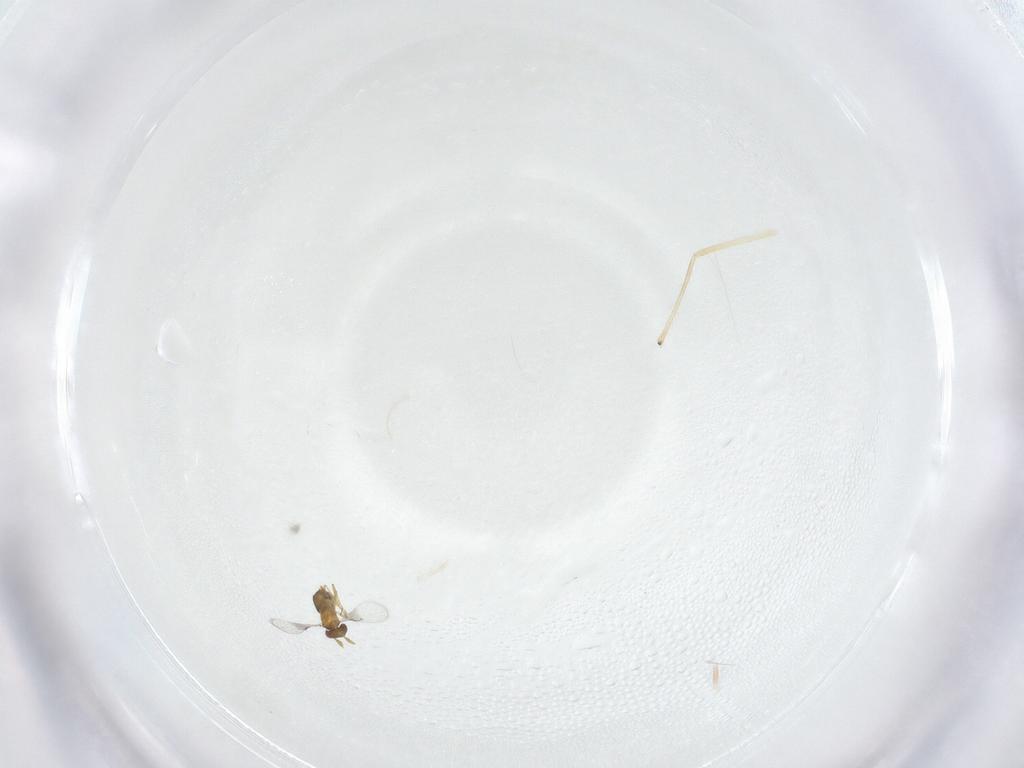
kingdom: Animalia
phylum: Arthropoda
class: Insecta
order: Hymenoptera
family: Trichogrammatidae
